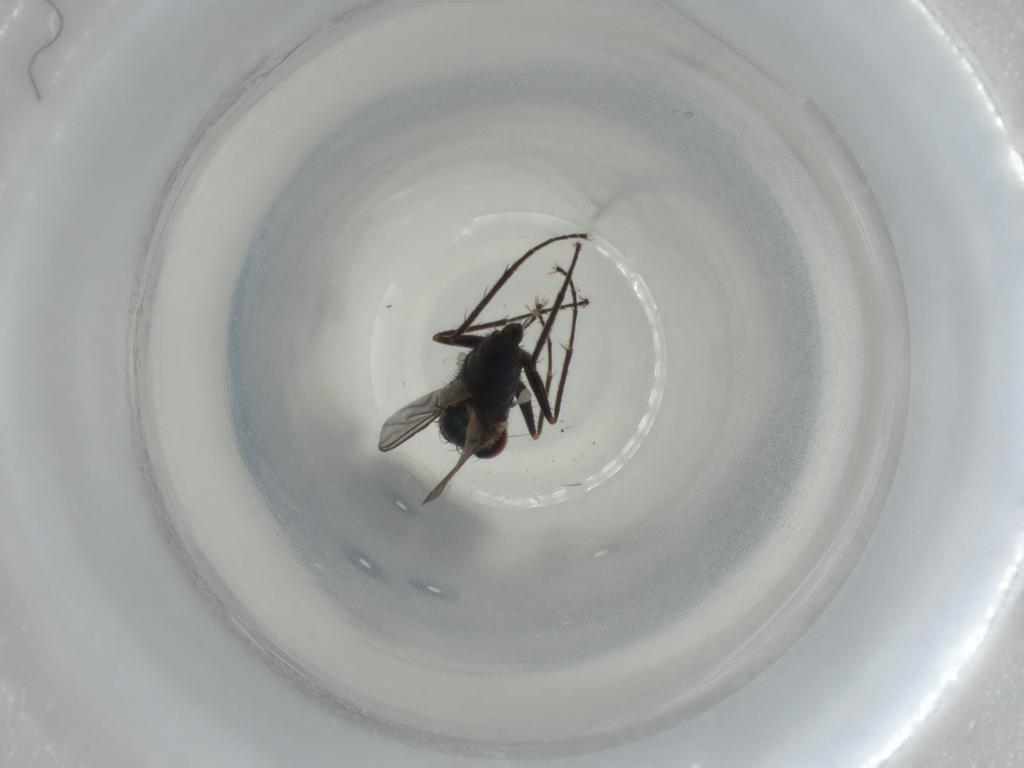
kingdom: Animalia
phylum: Arthropoda
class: Insecta
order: Diptera
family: Dolichopodidae
